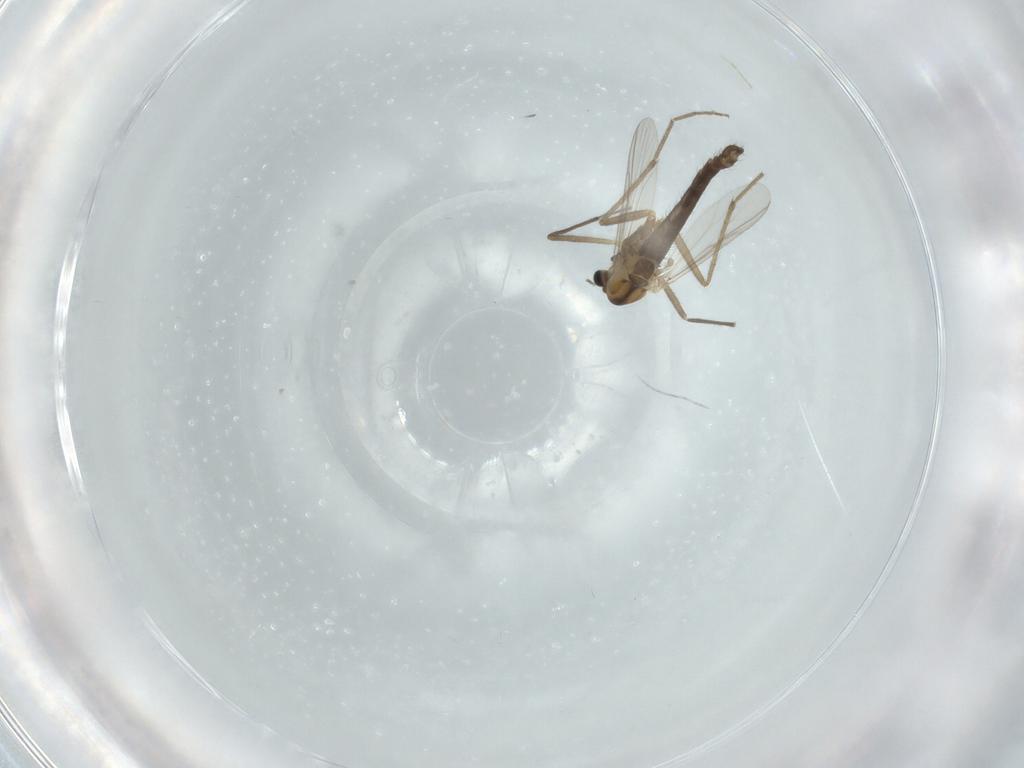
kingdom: Animalia
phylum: Arthropoda
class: Insecta
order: Diptera
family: Chironomidae
